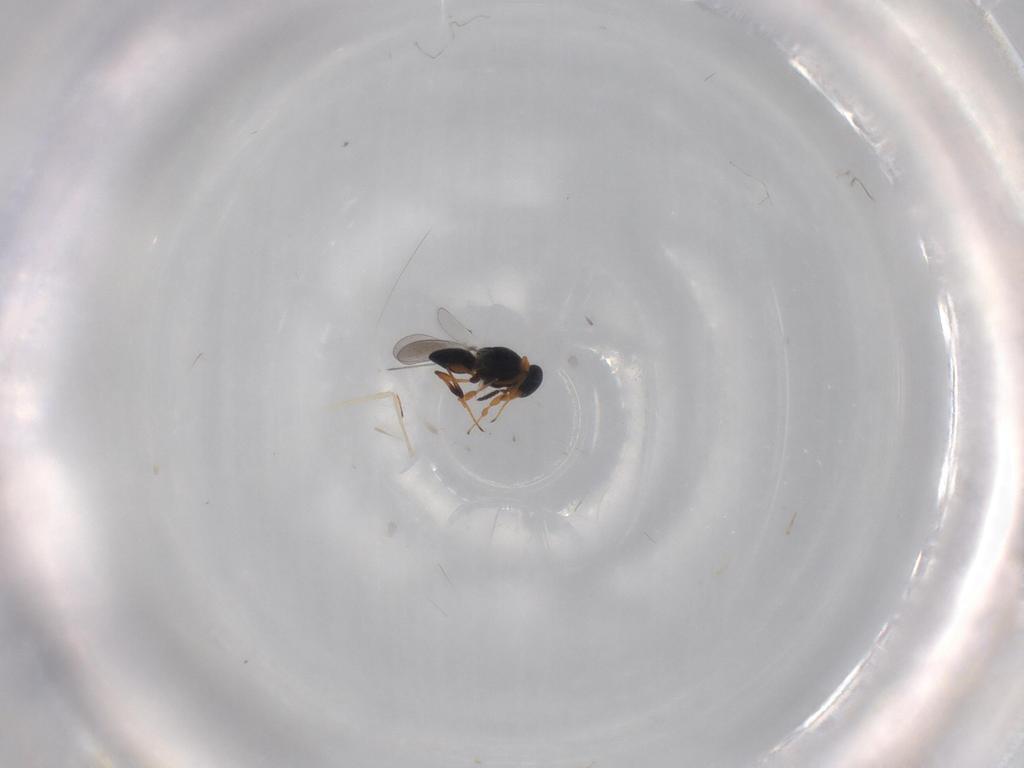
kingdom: Animalia
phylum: Arthropoda
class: Insecta
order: Hymenoptera
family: Platygastridae
